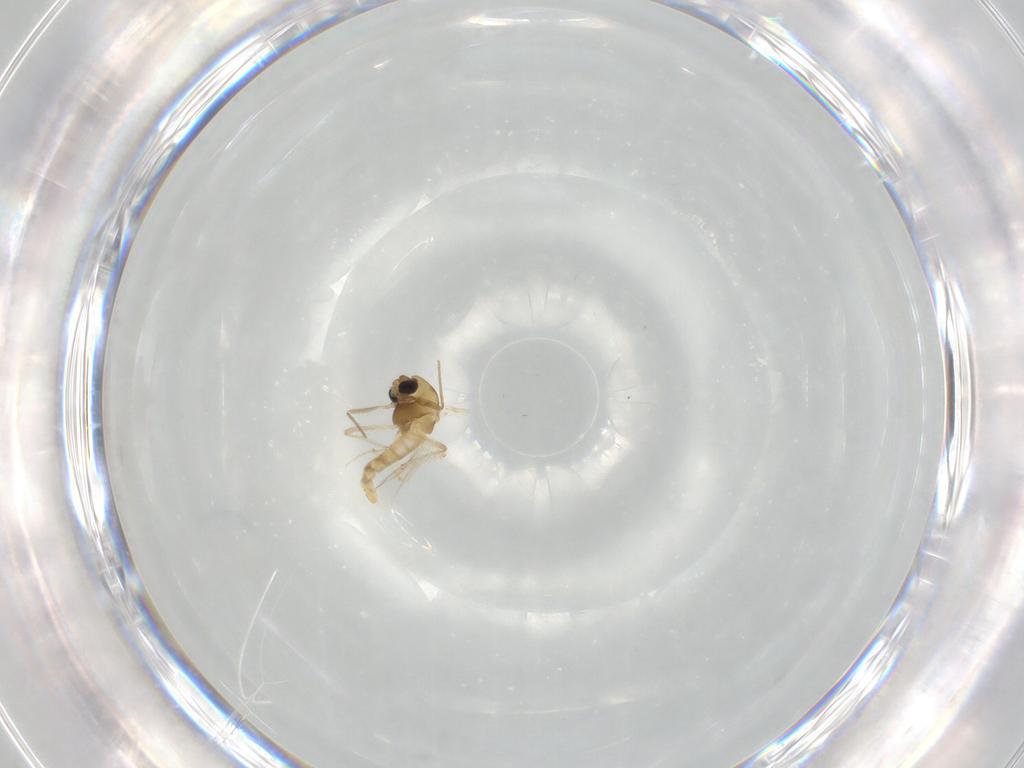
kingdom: Animalia
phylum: Arthropoda
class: Insecta
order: Diptera
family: Chironomidae
